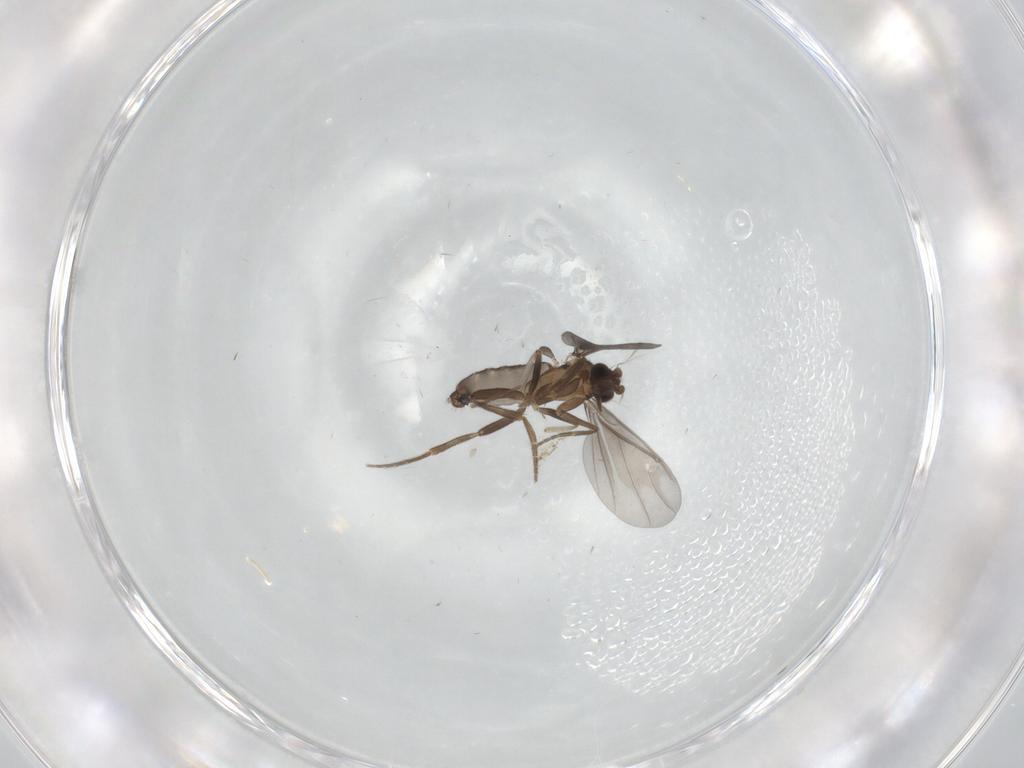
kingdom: Animalia
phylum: Arthropoda
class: Insecta
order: Diptera
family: Phoridae
